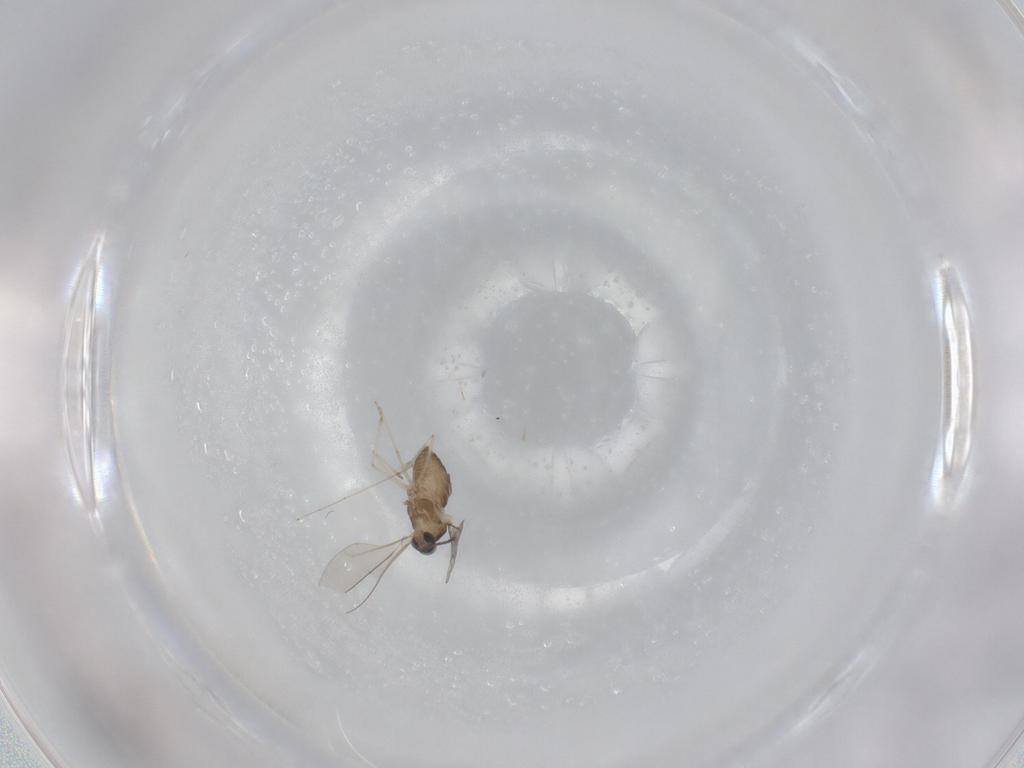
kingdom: Animalia
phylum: Arthropoda
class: Insecta
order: Diptera
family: Cecidomyiidae
